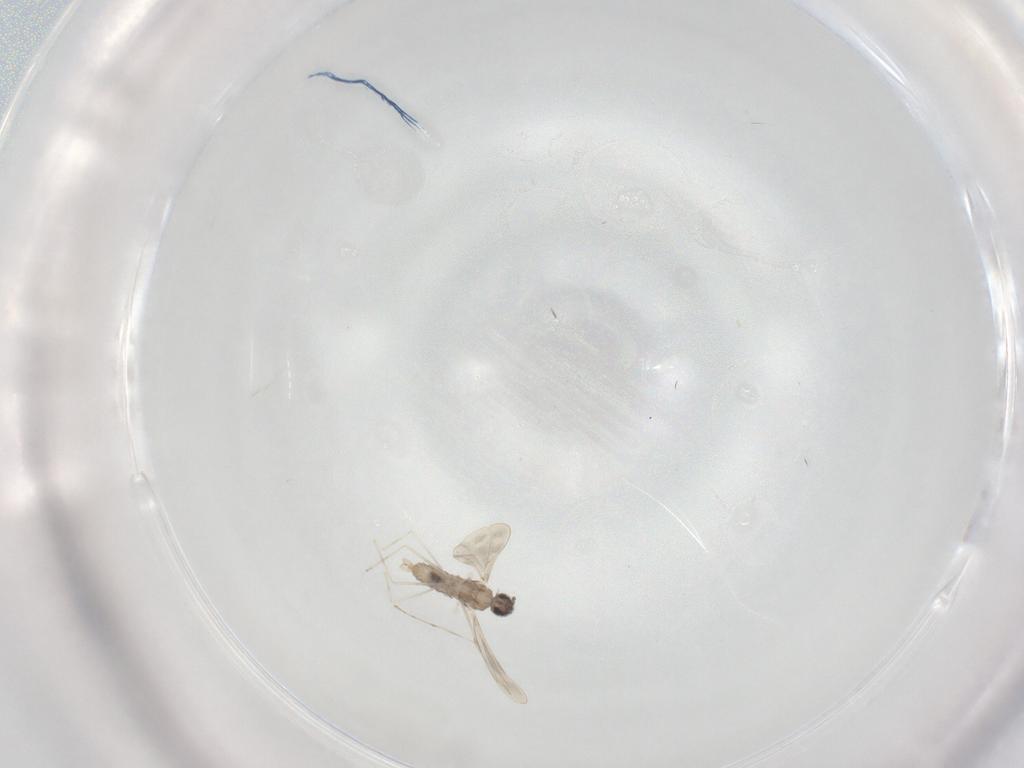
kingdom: Animalia
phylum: Arthropoda
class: Insecta
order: Diptera
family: Cecidomyiidae
